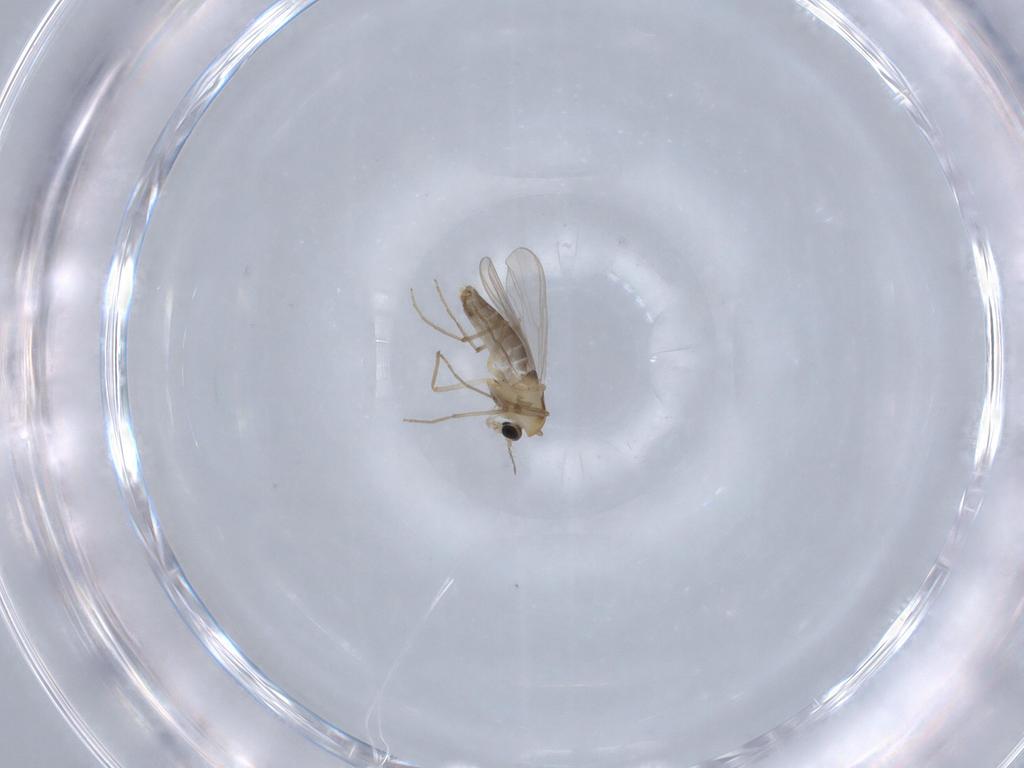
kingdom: Animalia
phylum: Arthropoda
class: Insecta
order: Diptera
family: Chironomidae
